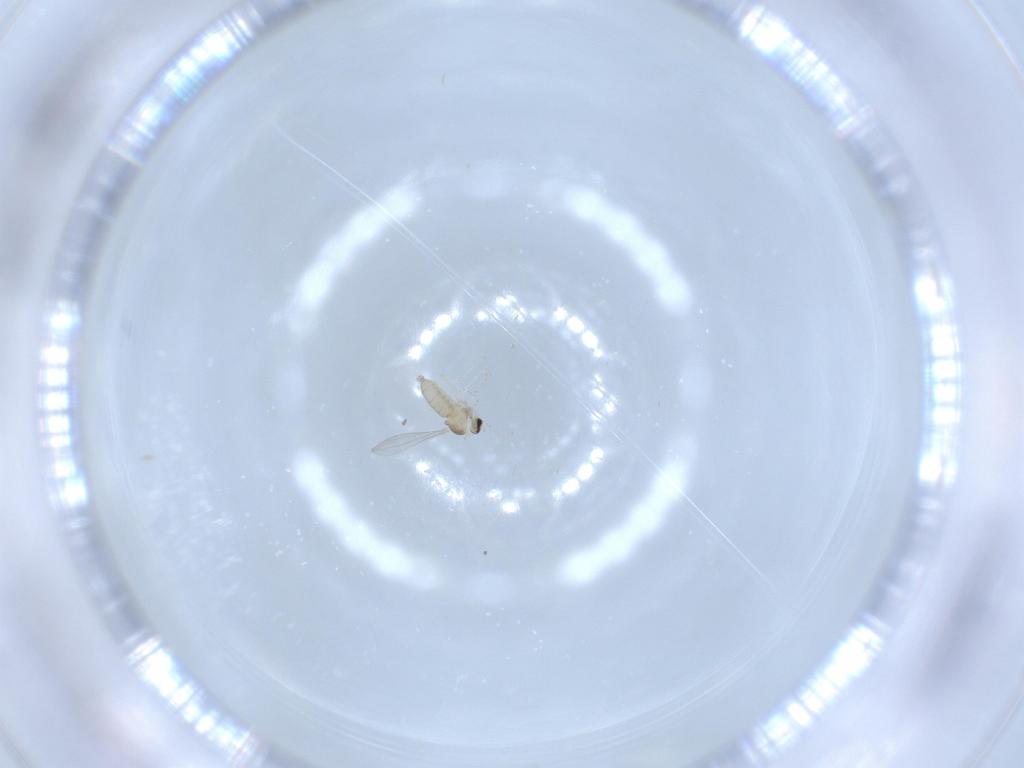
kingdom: Animalia
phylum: Arthropoda
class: Insecta
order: Diptera
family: Cecidomyiidae
